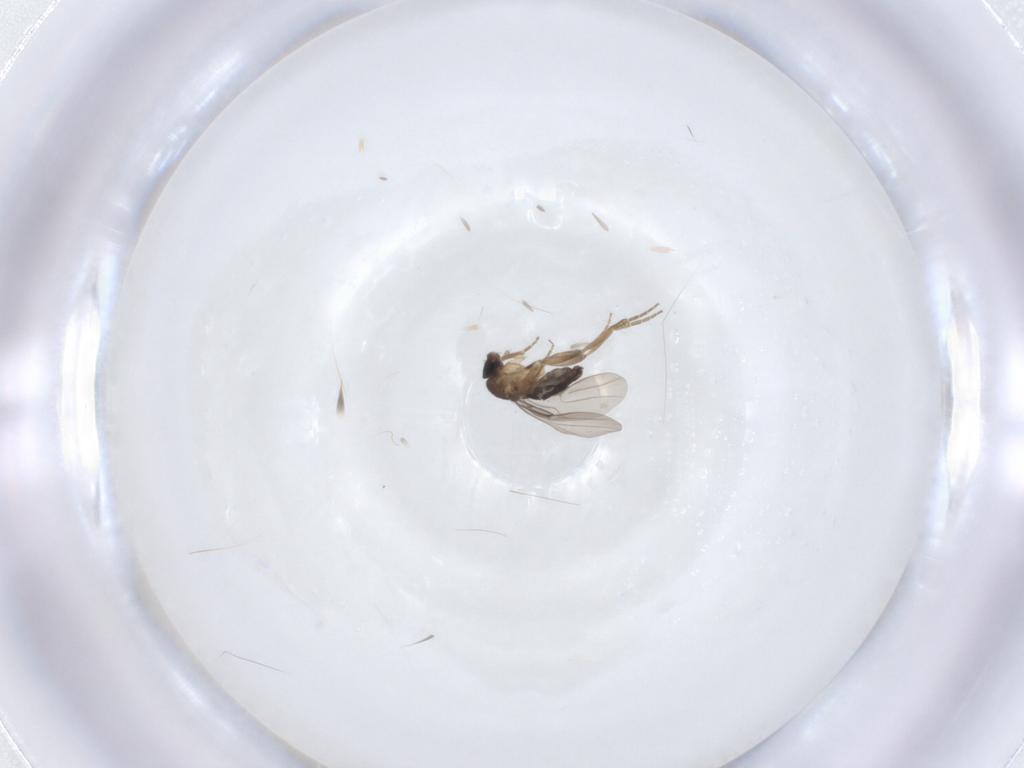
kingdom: Animalia
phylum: Arthropoda
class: Insecta
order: Diptera
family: Phoridae
